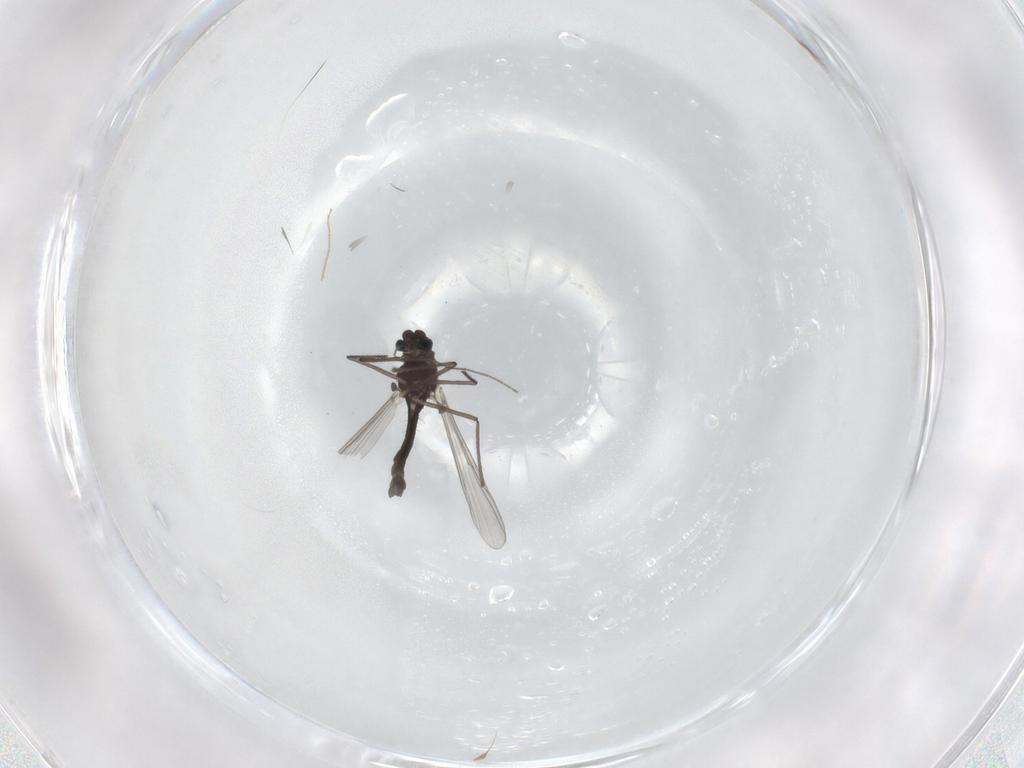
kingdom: Animalia
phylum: Arthropoda
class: Insecta
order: Diptera
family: Chironomidae
